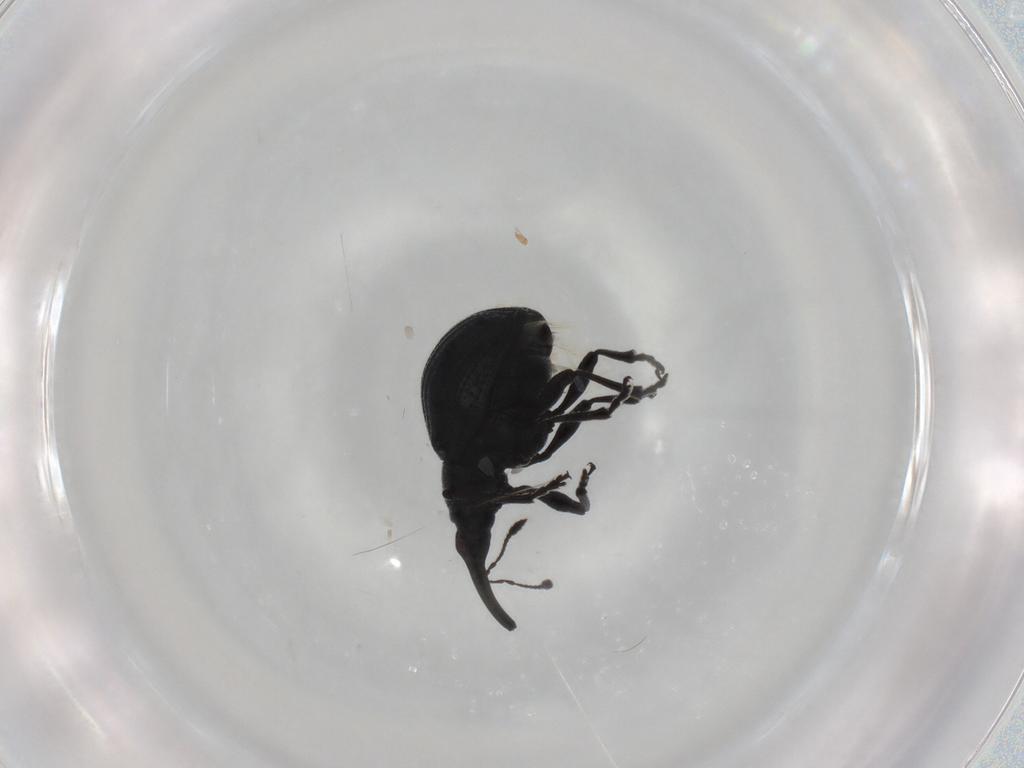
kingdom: Animalia
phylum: Arthropoda
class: Insecta
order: Coleoptera
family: Brentidae
